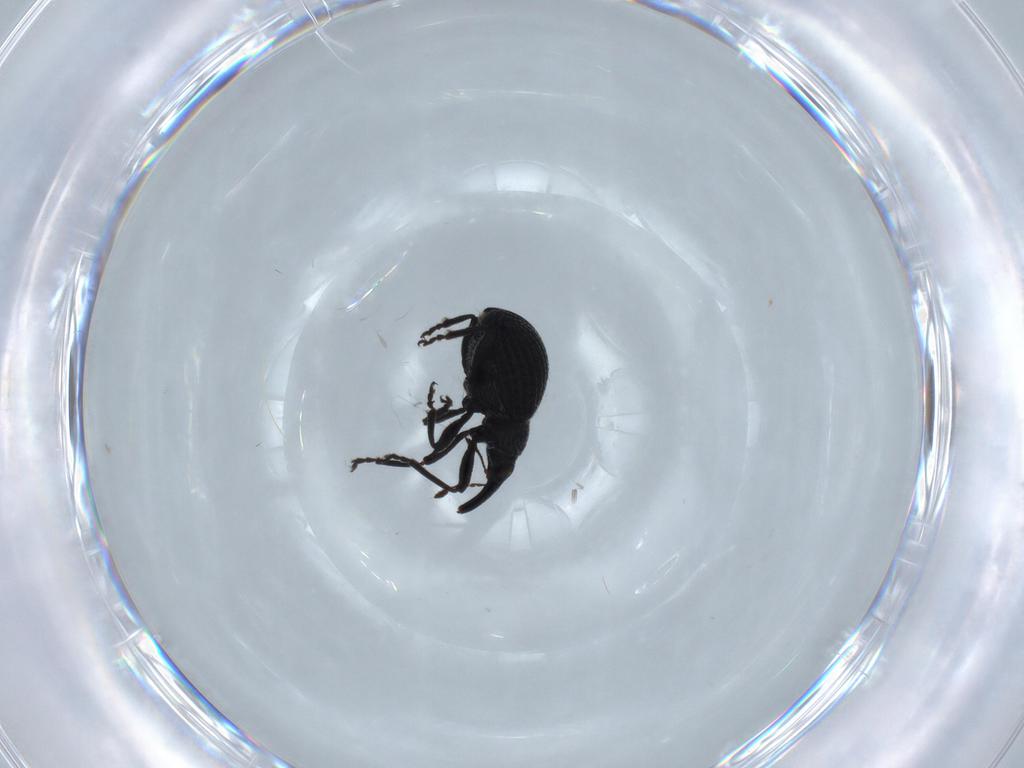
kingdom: Animalia
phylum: Arthropoda
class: Insecta
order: Coleoptera
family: Brentidae
